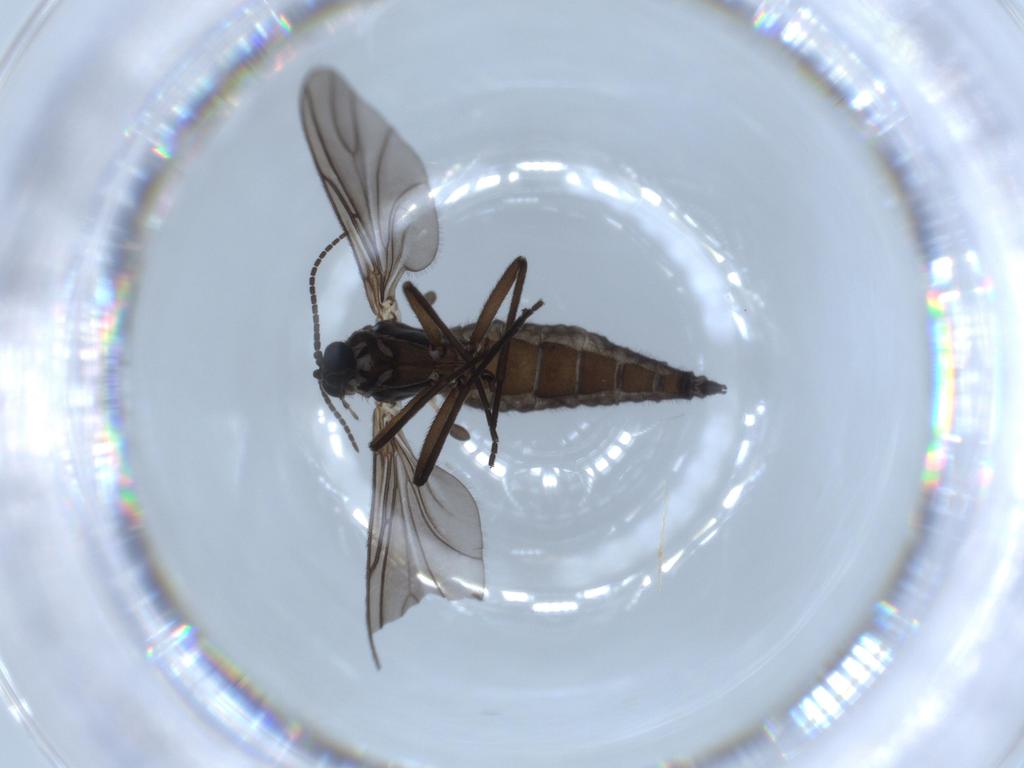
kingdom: Animalia
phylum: Arthropoda
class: Insecta
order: Diptera
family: Sciaridae
